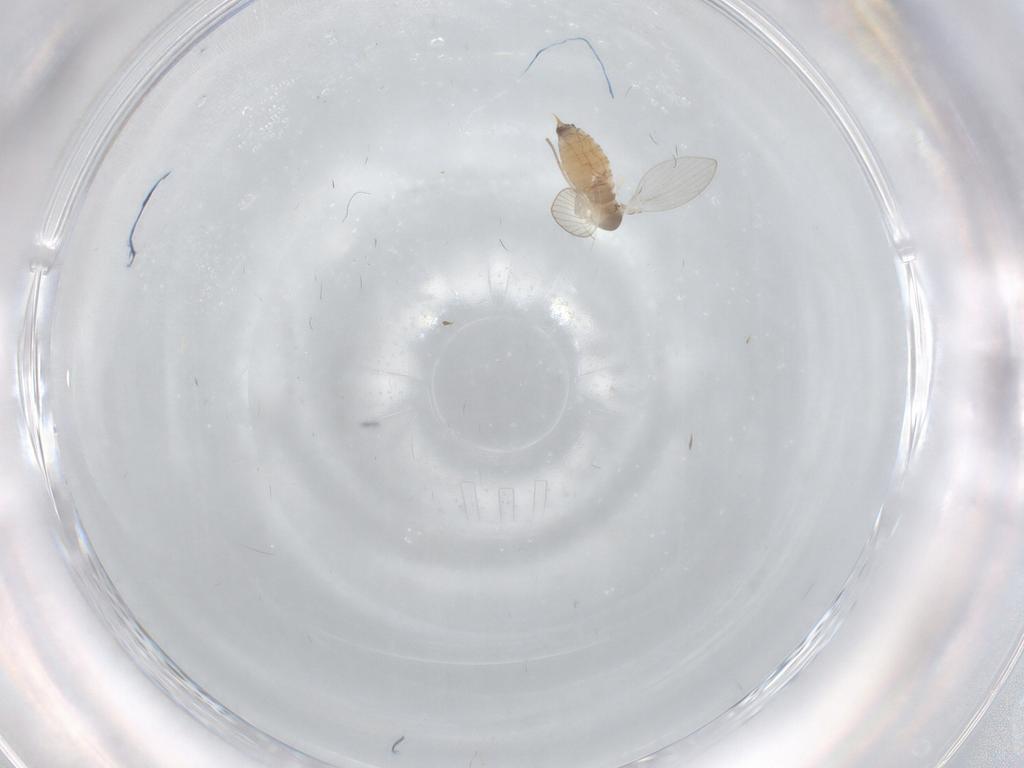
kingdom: Animalia
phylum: Arthropoda
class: Insecta
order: Diptera
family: Psychodidae
